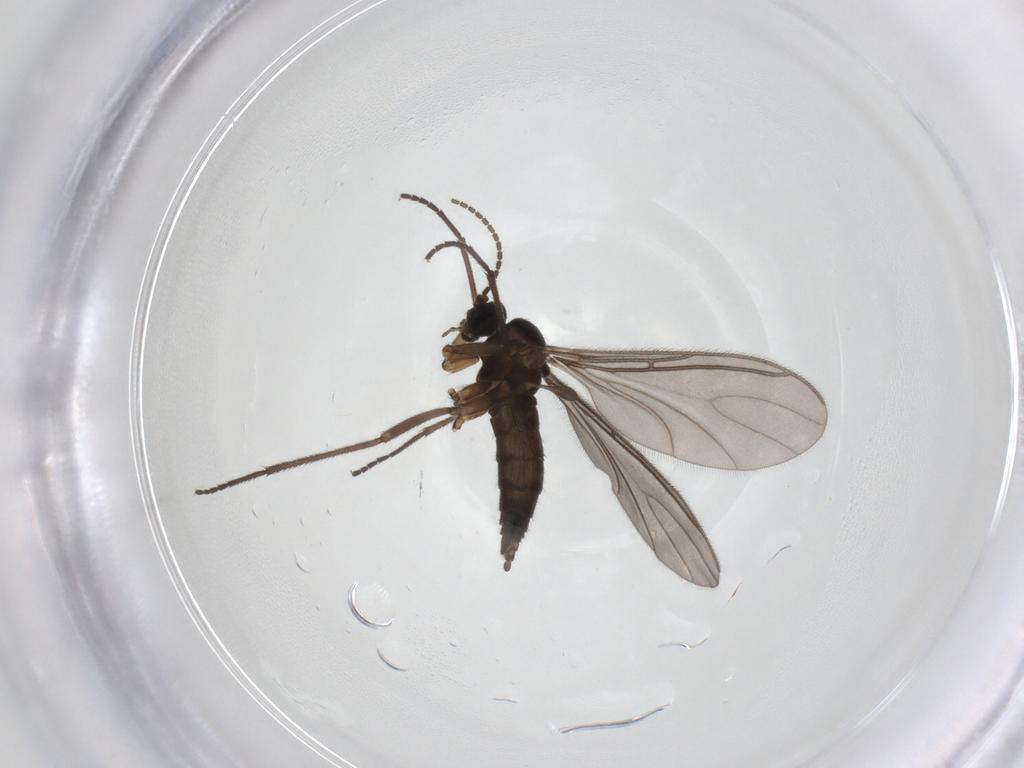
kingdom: Animalia
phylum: Arthropoda
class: Insecta
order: Diptera
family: Sciaridae
